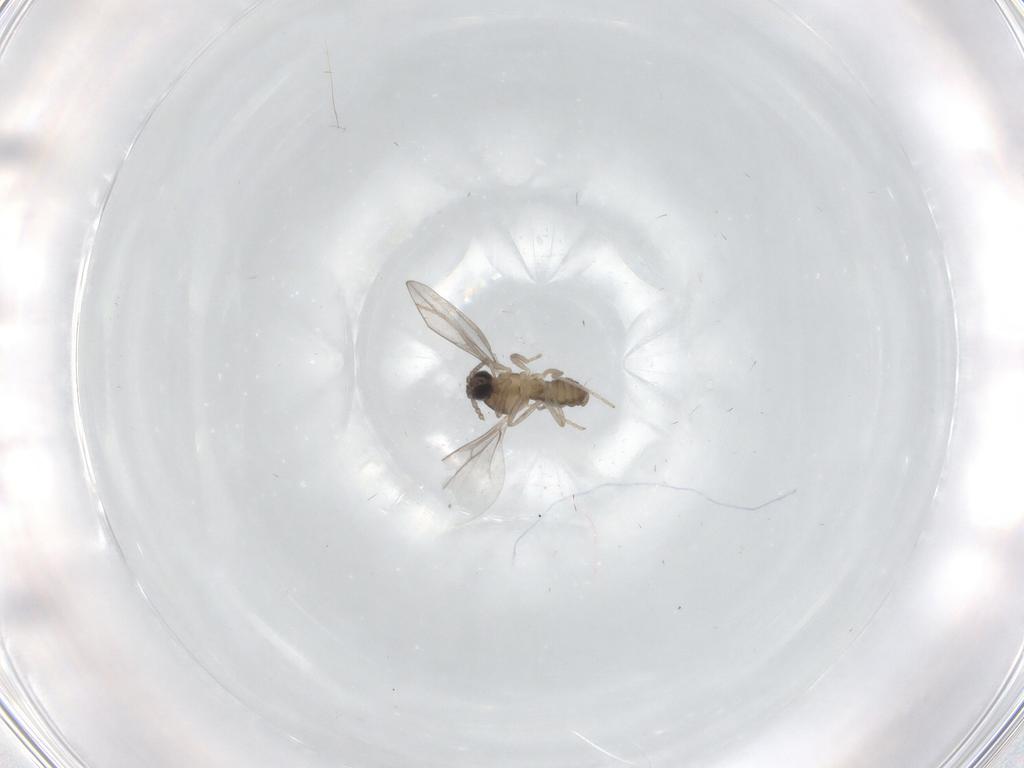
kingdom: Animalia
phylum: Arthropoda
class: Insecta
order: Diptera
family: Cecidomyiidae
